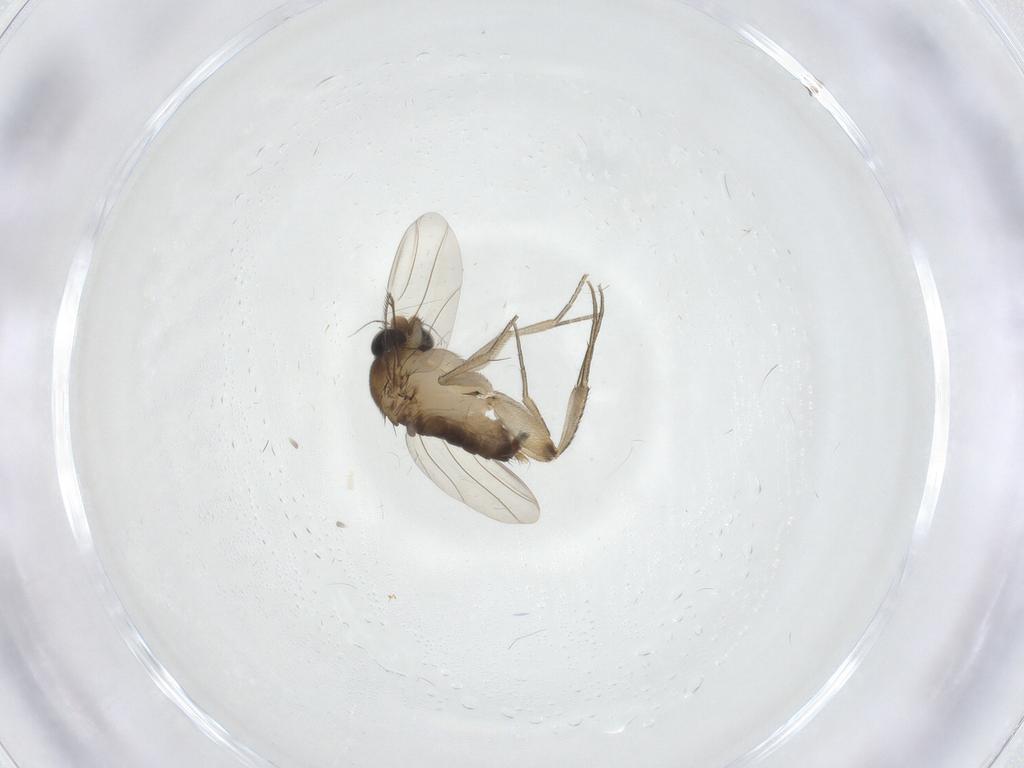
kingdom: Animalia
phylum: Arthropoda
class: Insecta
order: Diptera
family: Phoridae
